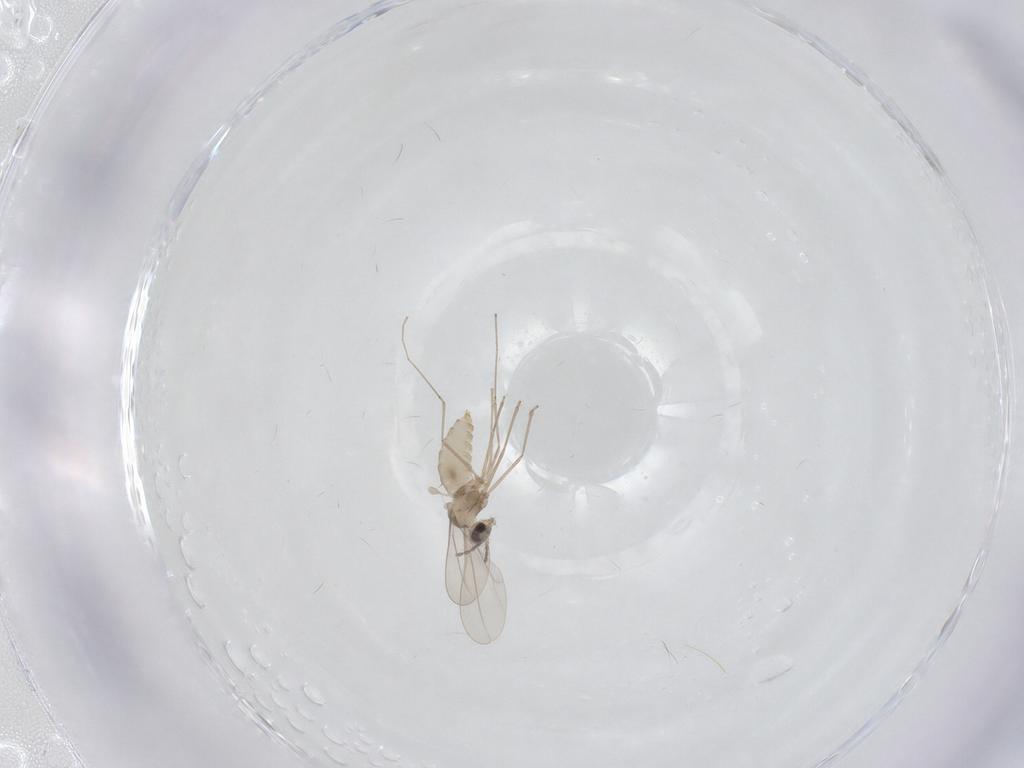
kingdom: Animalia
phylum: Arthropoda
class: Insecta
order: Diptera
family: Cecidomyiidae
